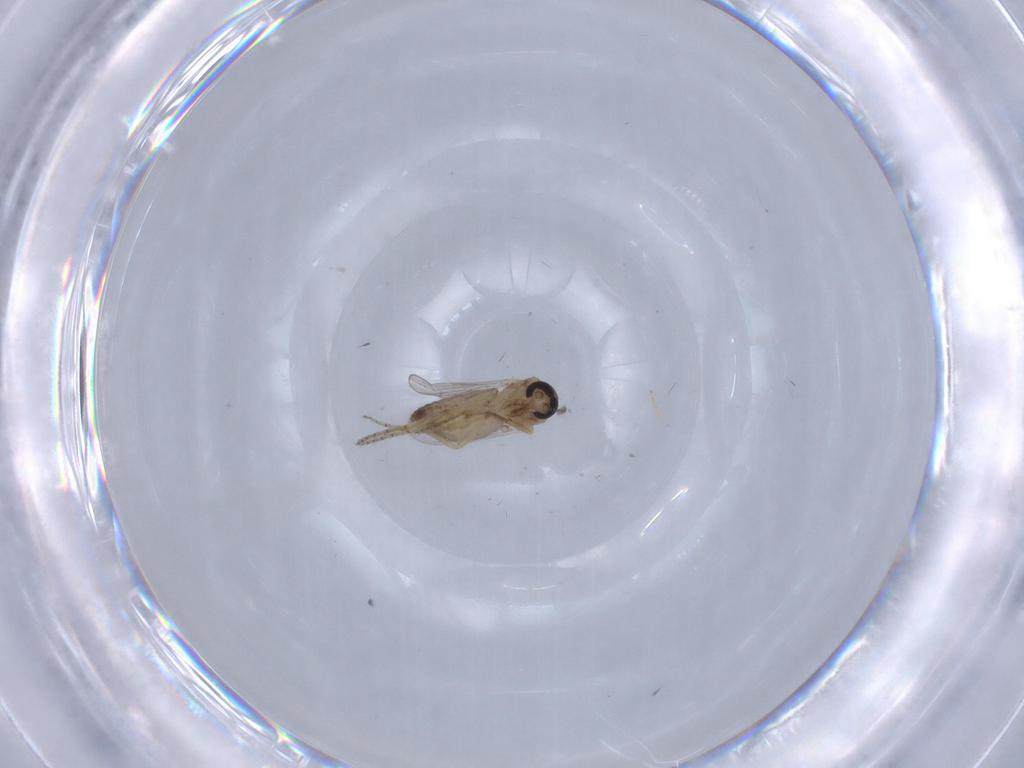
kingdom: Animalia
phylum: Arthropoda
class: Insecta
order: Diptera
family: Ceratopogonidae
